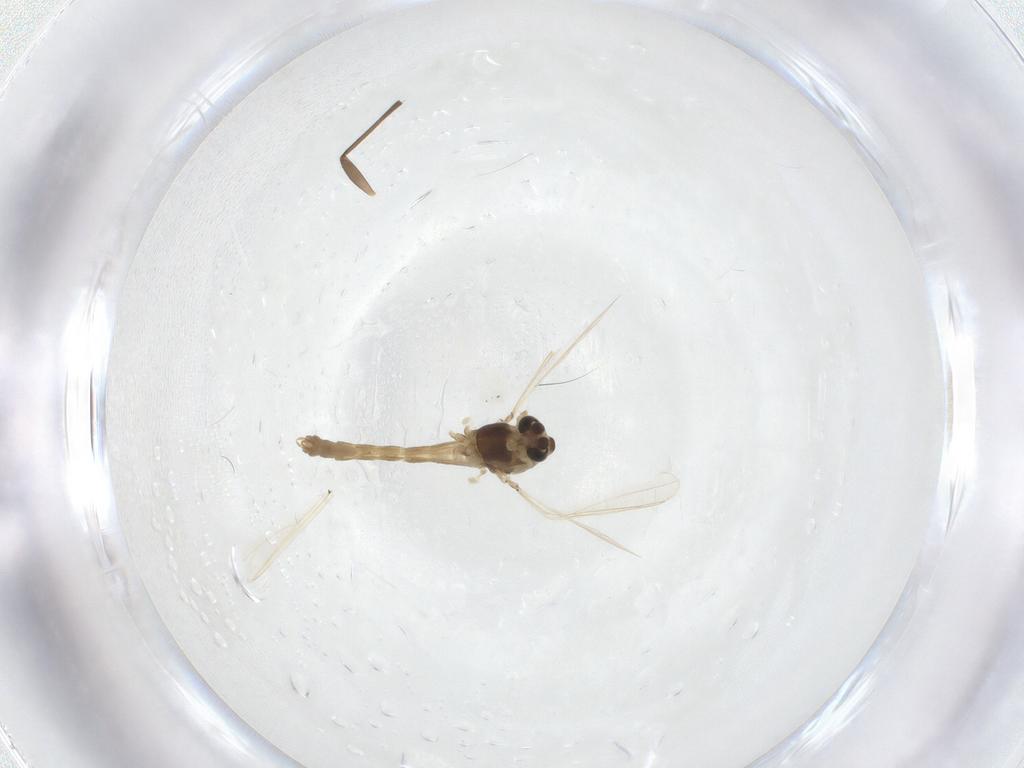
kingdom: Animalia
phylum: Arthropoda
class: Insecta
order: Diptera
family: Chironomidae
